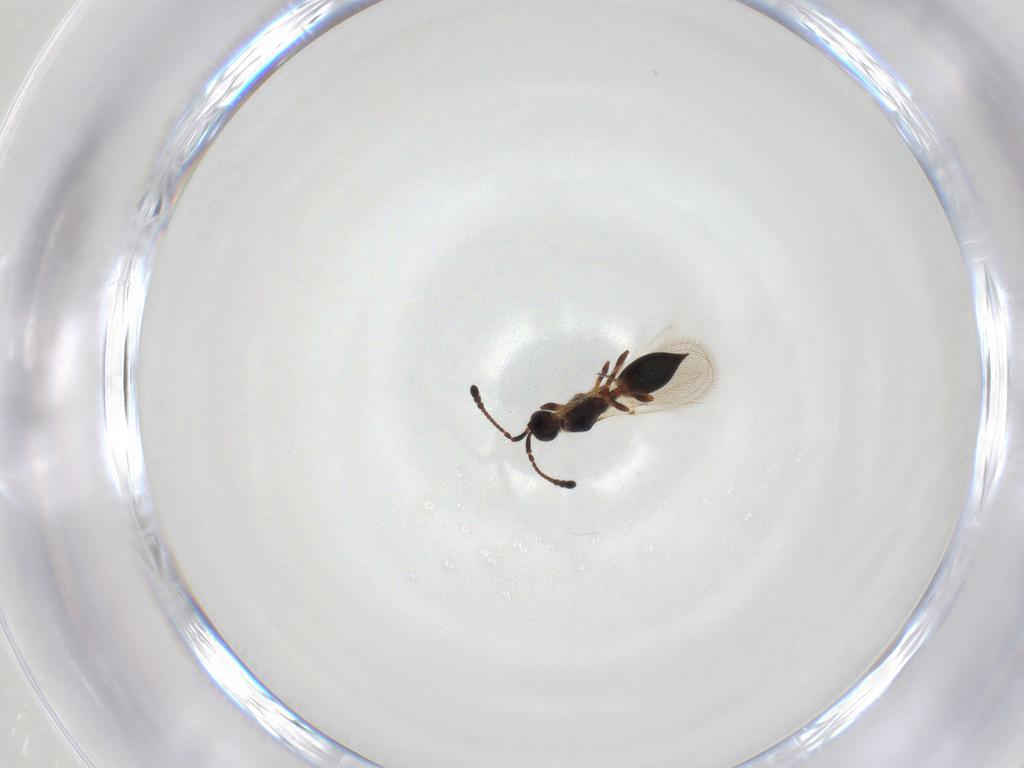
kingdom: Animalia
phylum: Arthropoda
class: Insecta
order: Hymenoptera
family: Diapriidae
